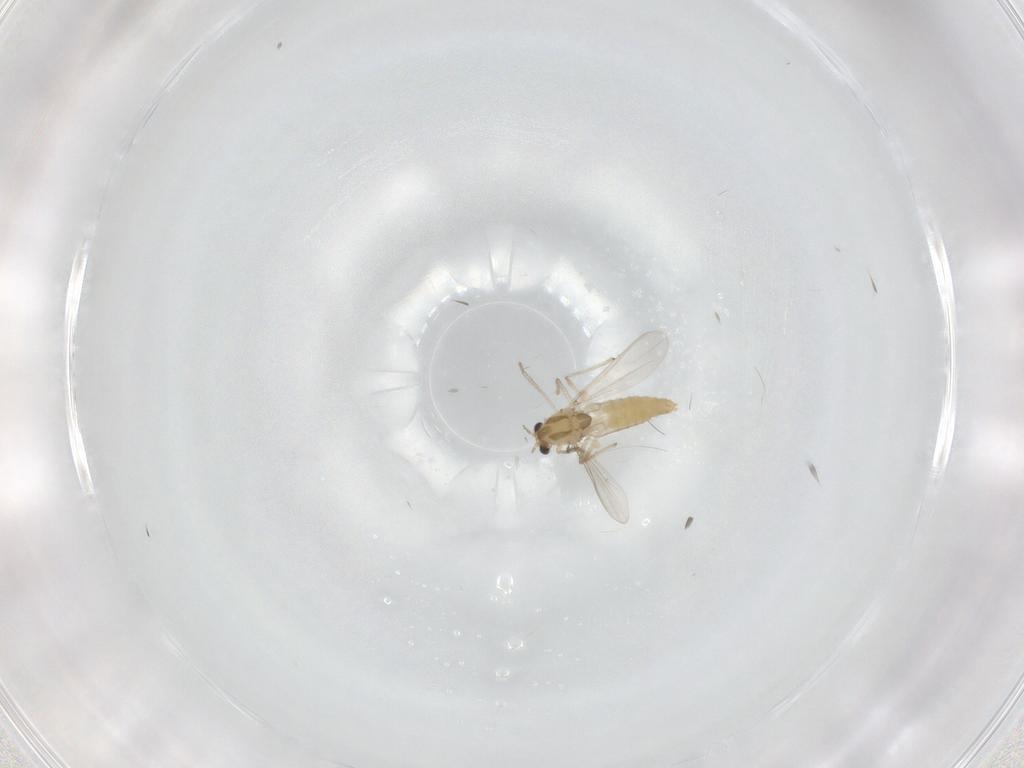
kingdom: Animalia
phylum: Arthropoda
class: Insecta
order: Diptera
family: Chironomidae
